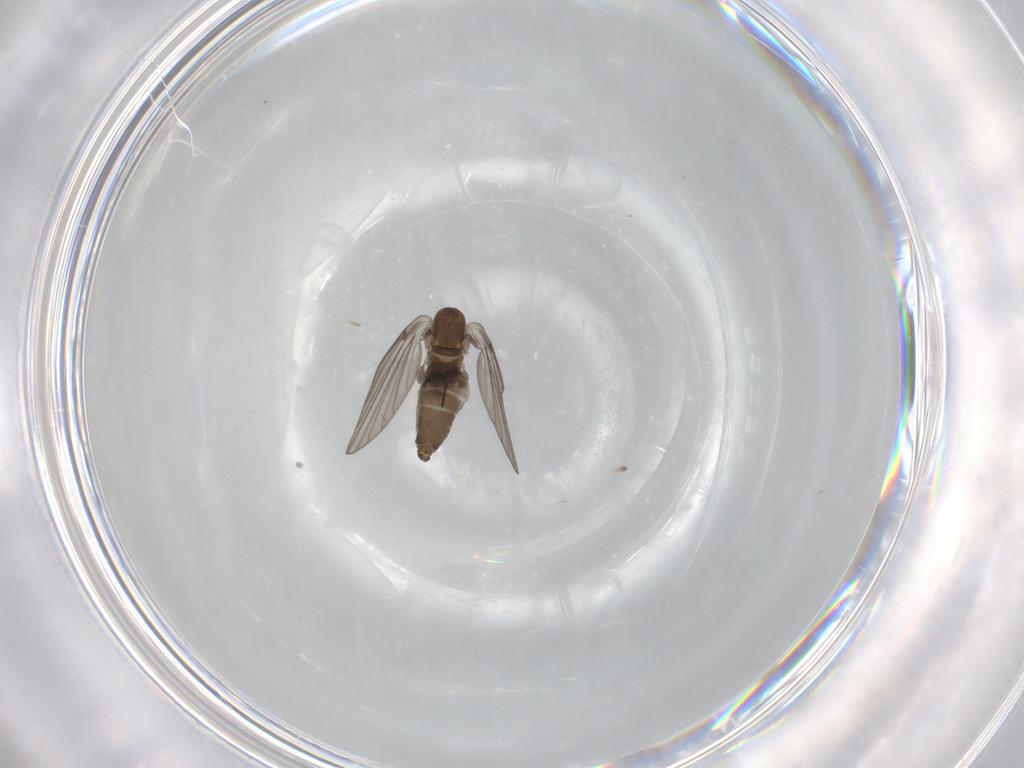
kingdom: Animalia
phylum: Arthropoda
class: Insecta
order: Diptera
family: Psychodidae
